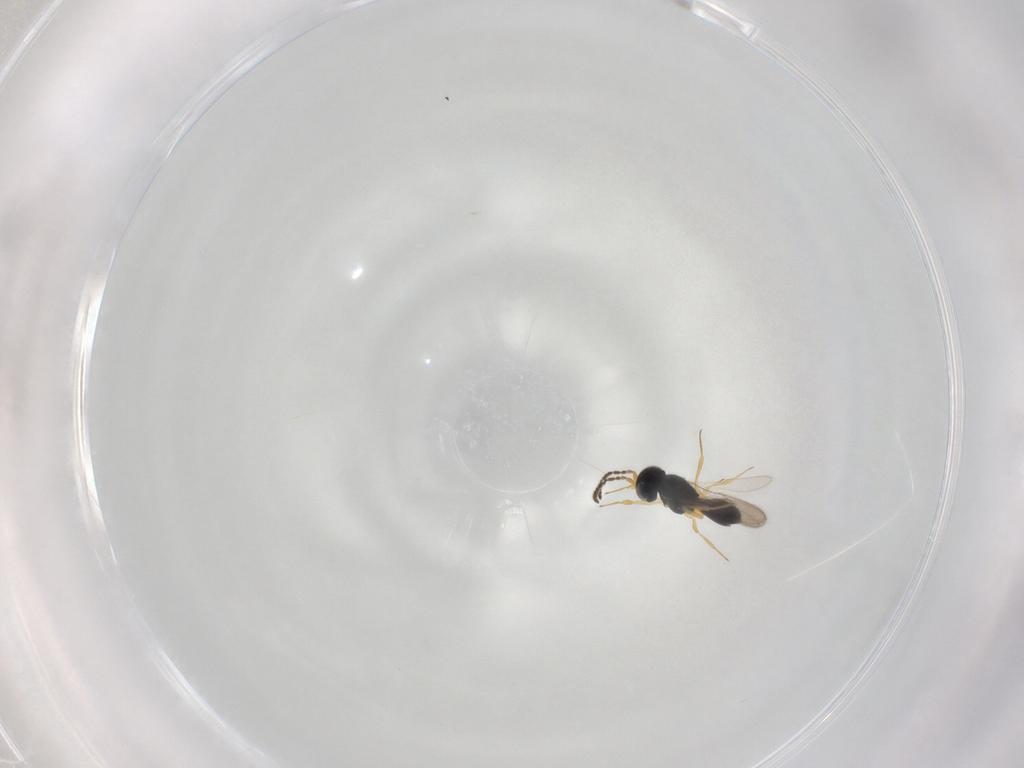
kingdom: Animalia
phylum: Arthropoda
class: Insecta
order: Hymenoptera
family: Scelionidae
